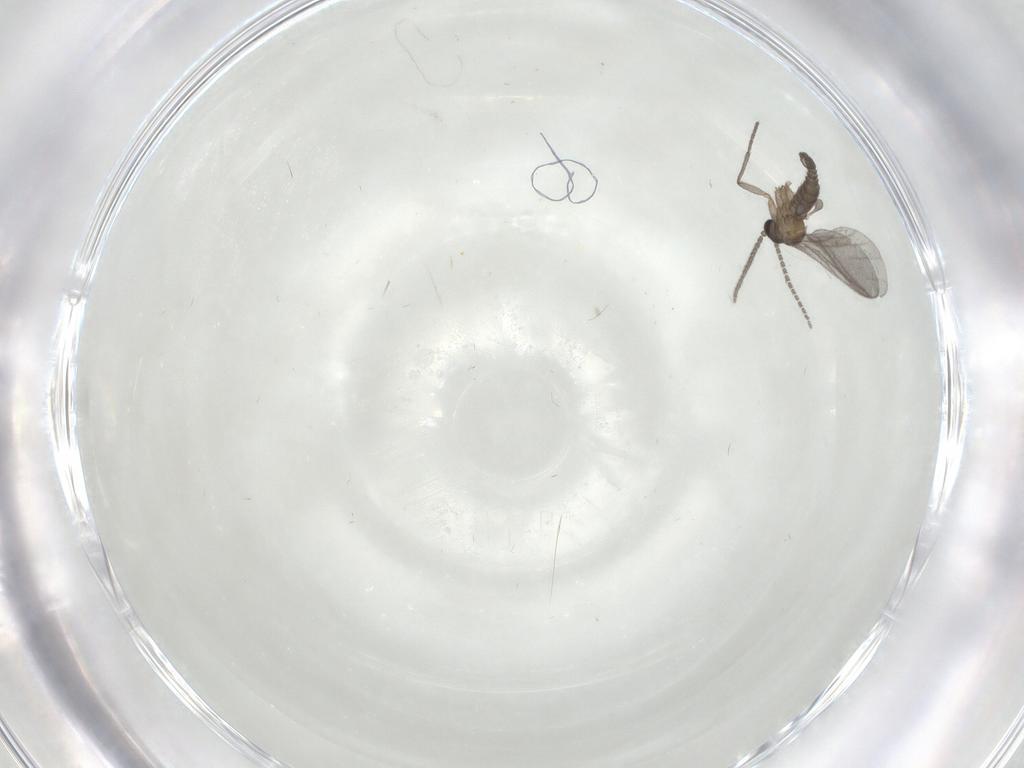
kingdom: Animalia
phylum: Arthropoda
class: Insecta
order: Diptera
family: Sciaridae
